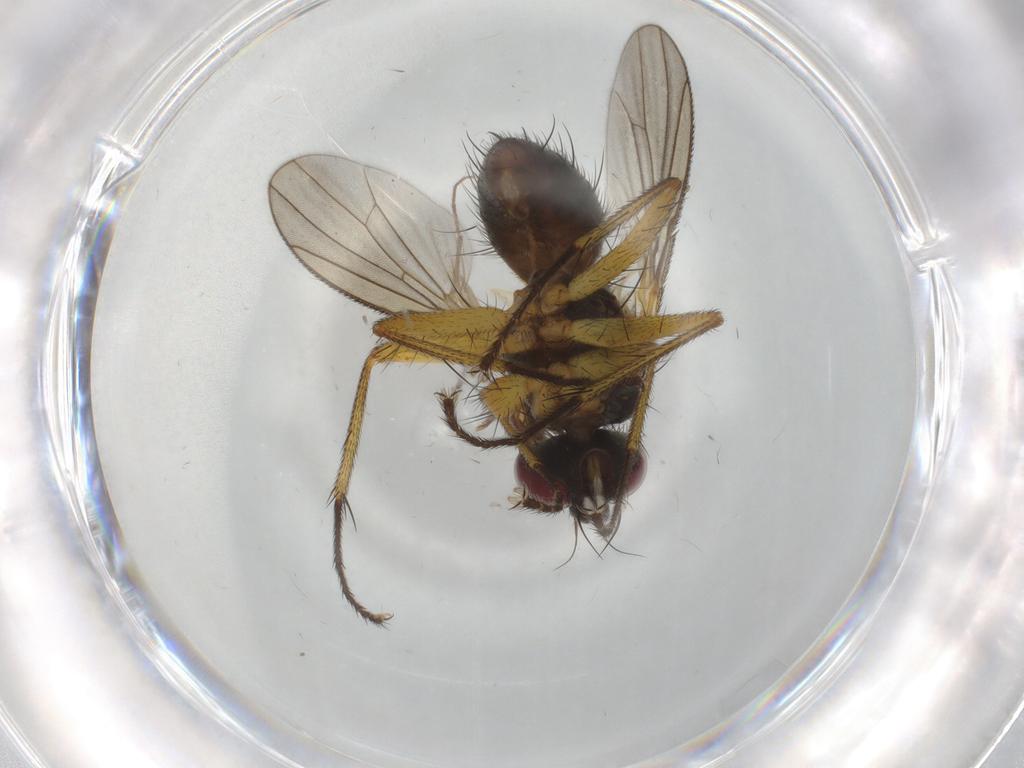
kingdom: Animalia
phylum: Arthropoda
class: Insecta
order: Diptera
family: Muscidae
